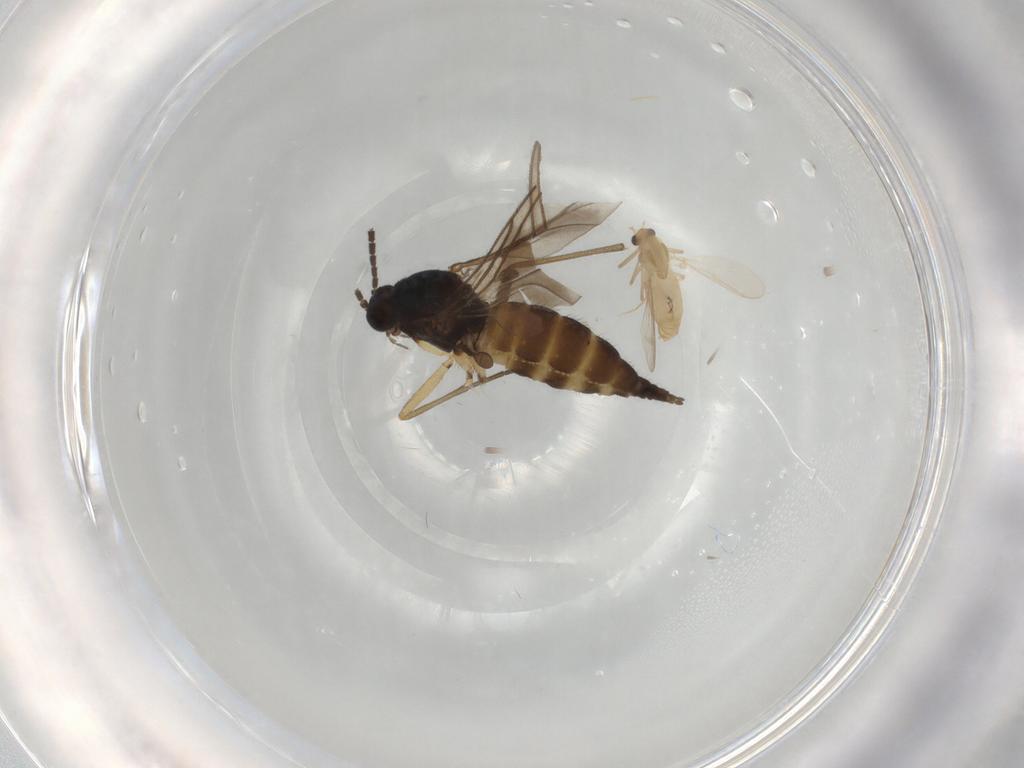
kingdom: Animalia
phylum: Arthropoda
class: Insecta
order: Diptera
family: Chironomidae
